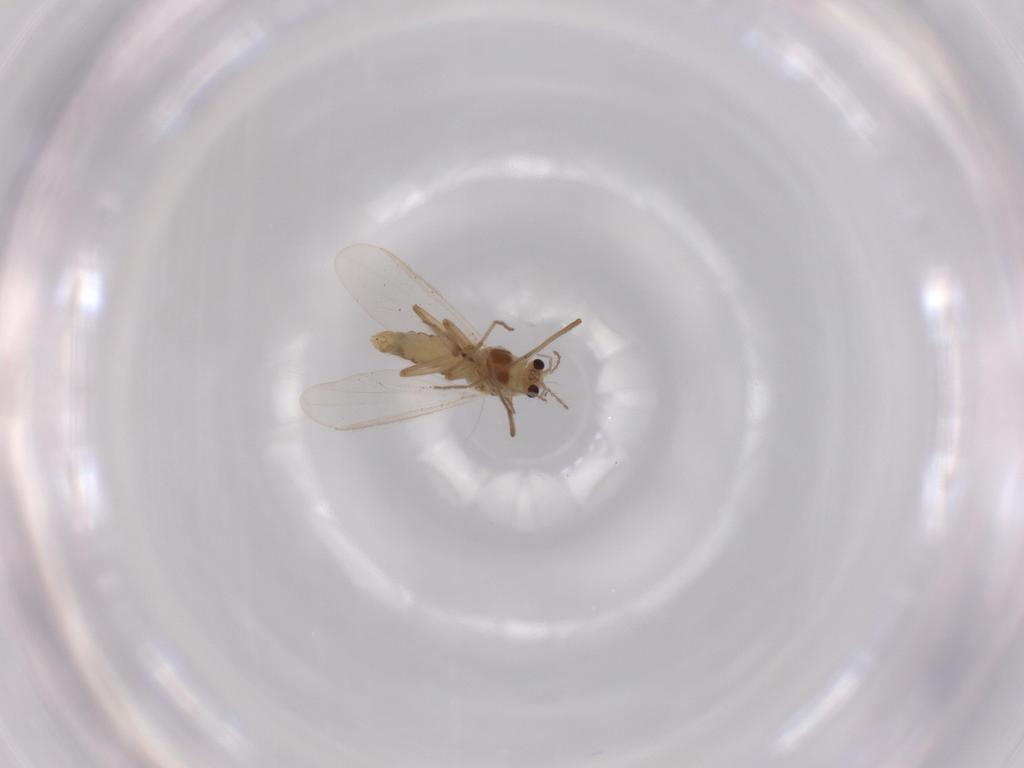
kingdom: Animalia
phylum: Arthropoda
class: Insecta
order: Diptera
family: Chironomidae
